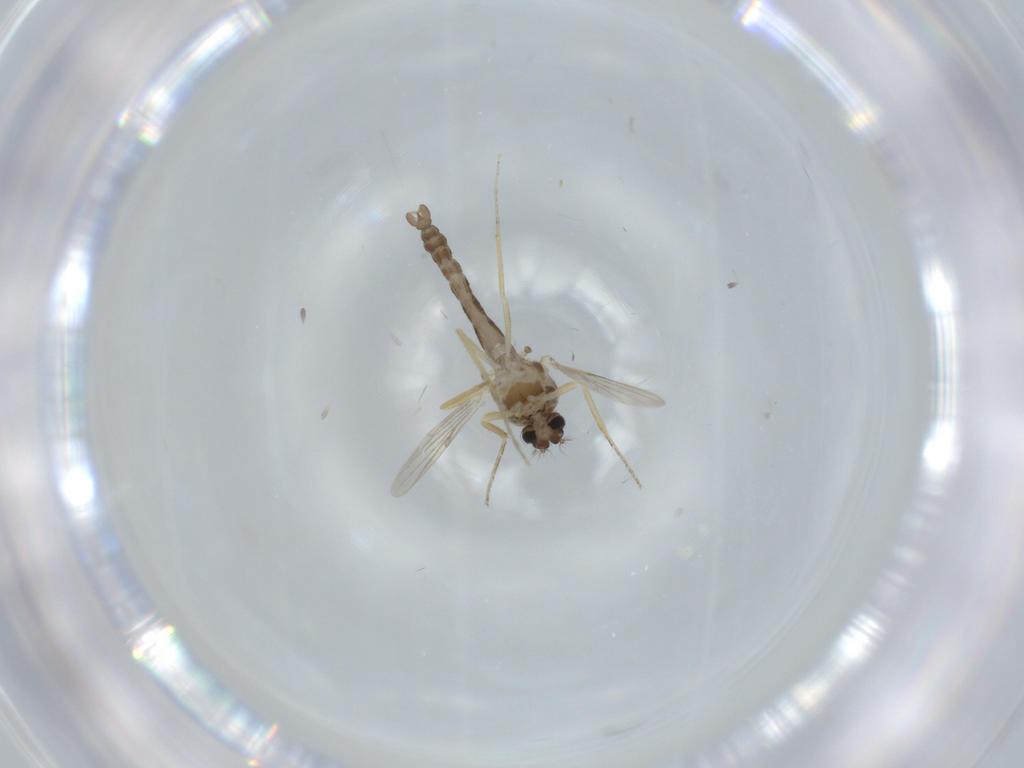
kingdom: Animalia
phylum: Arthropoda
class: Insecta
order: Diptera
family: Ceratopogonidae
